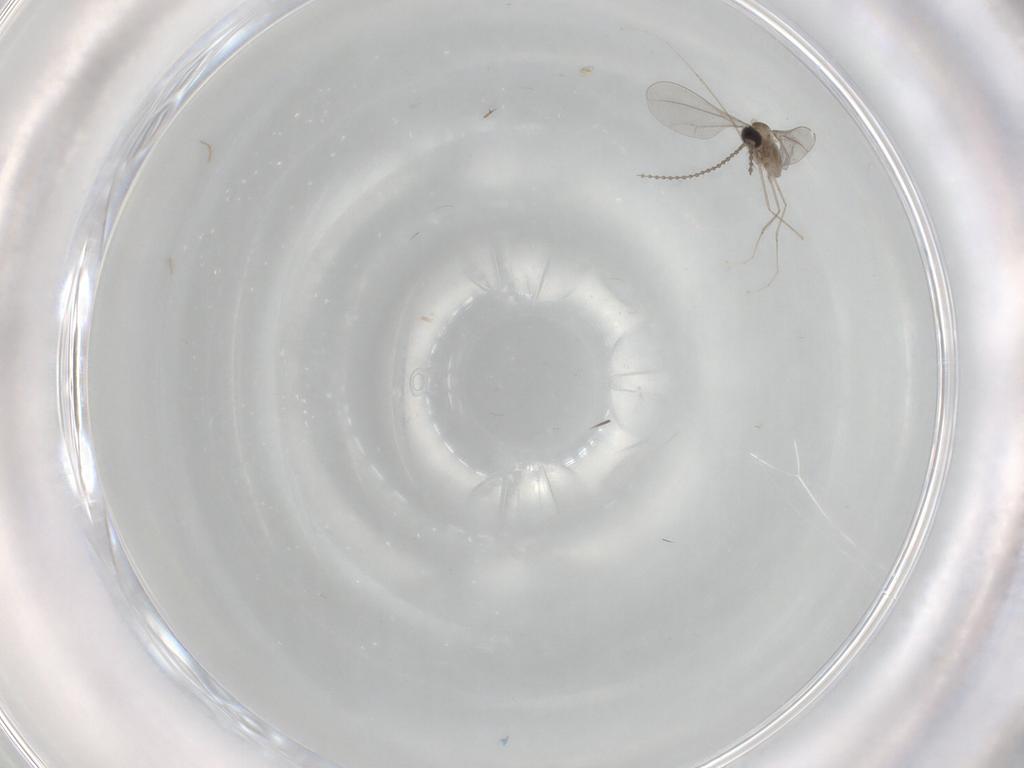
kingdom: Animalia
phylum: Arthropoda
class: Insecta
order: Diptera
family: Cecidomyiidae
